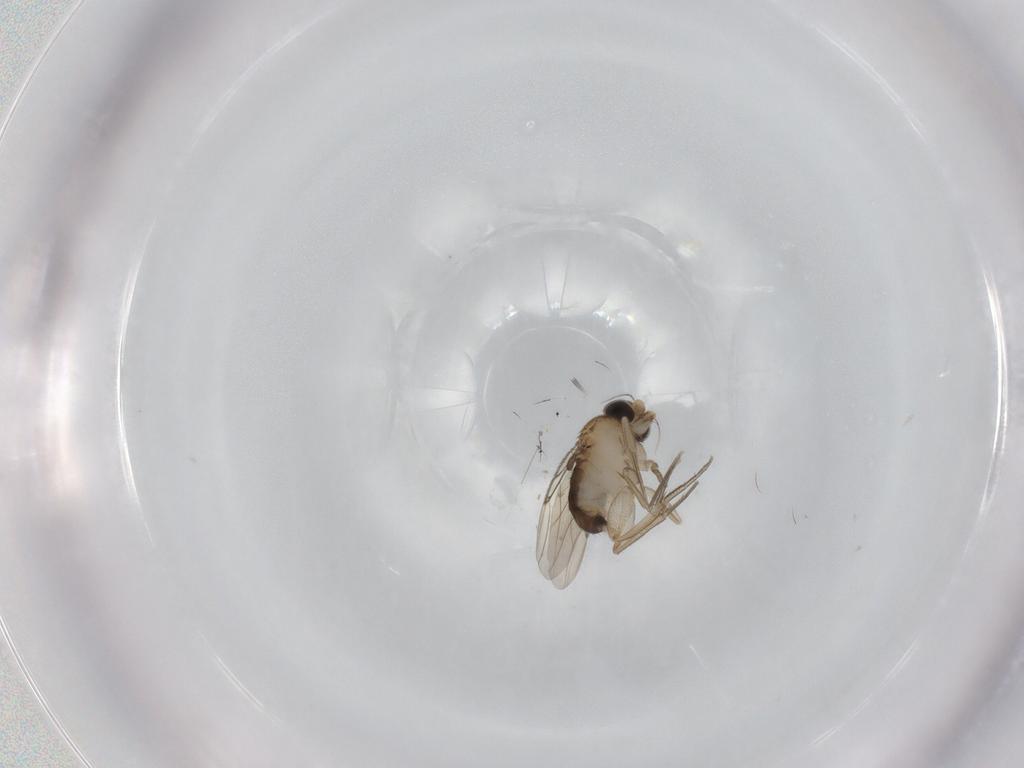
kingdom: Animalia
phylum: Arthropoda
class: Insecta
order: Diptera
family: Phoridae
